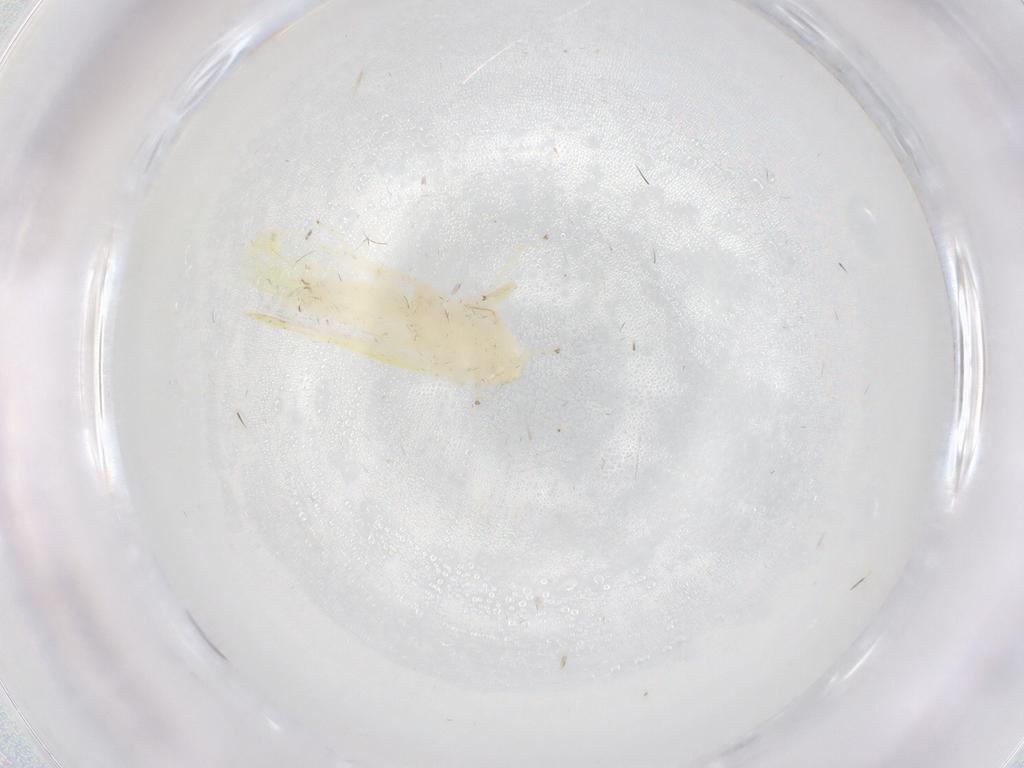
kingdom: Animalia
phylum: Arthropoda
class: Insecta
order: Hemiptera
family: Cicadellidae
